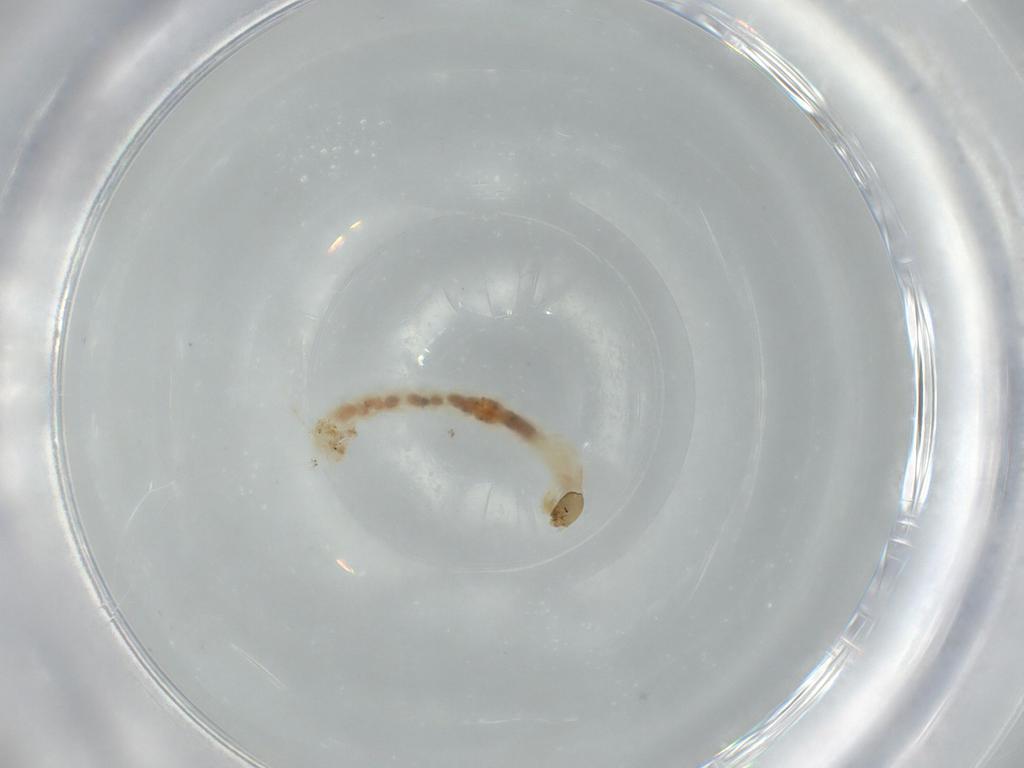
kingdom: Animalia
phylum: Arthropoda
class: Insecta
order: Diptera
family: Chironomidae
